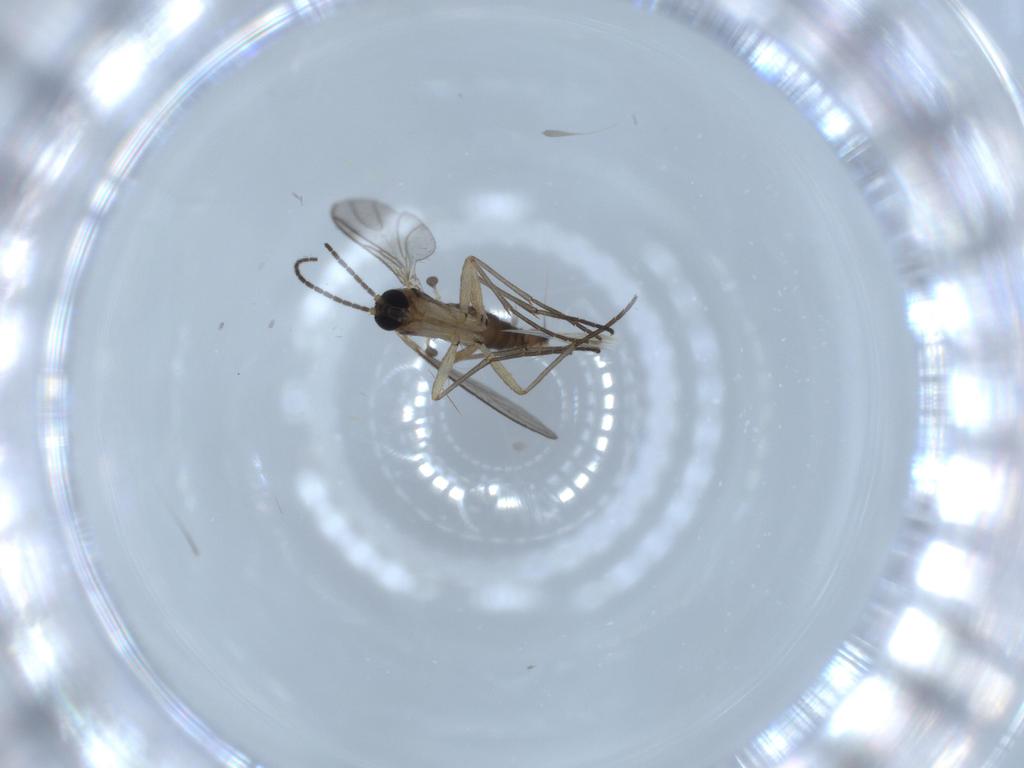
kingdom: Animalia
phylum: Arthropoda
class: Insecta
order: Diptera
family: Sciaridae
